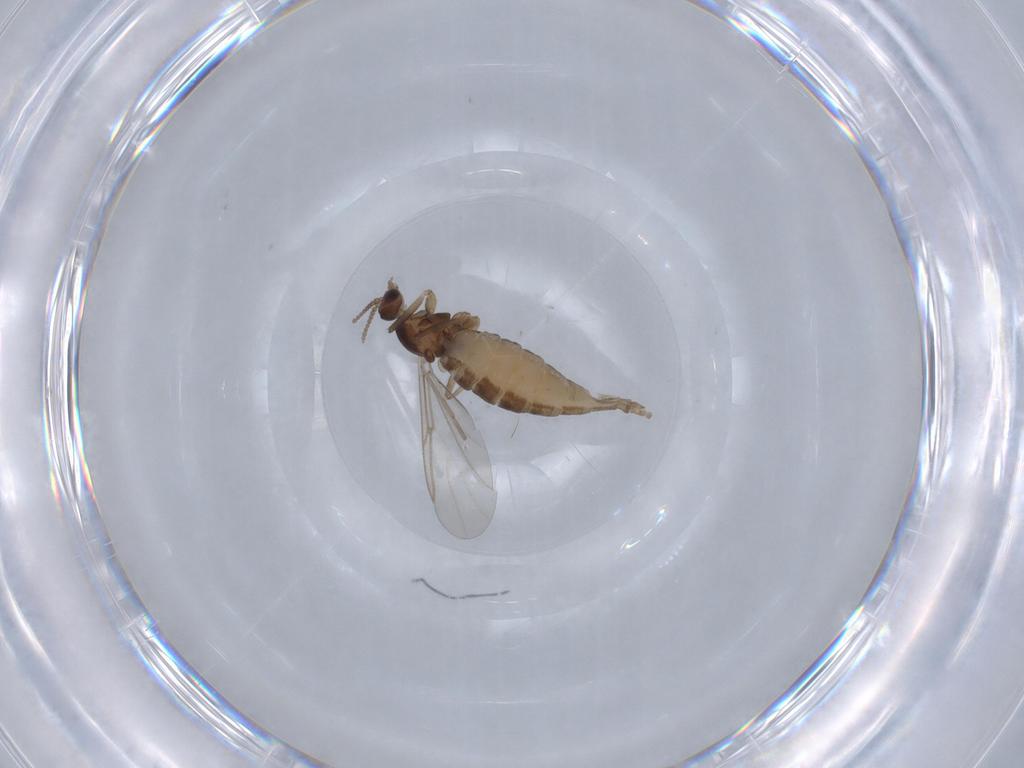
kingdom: Animalia
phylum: Arthropoda
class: Insecta
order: Diptera
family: Cecidomyiidae
